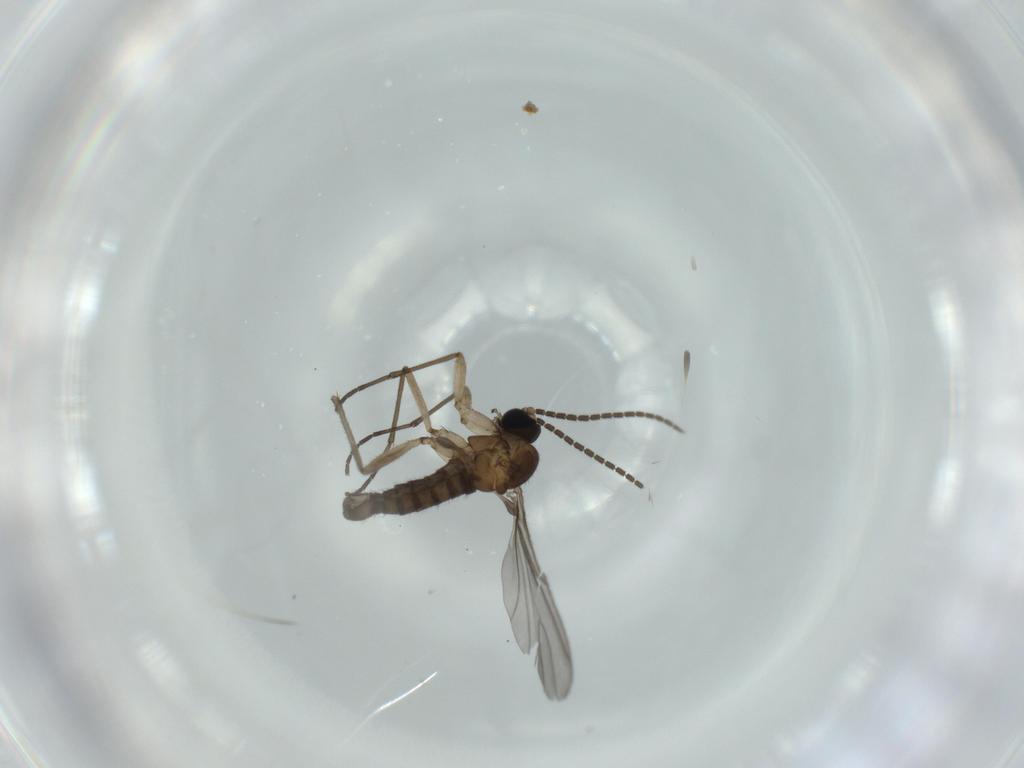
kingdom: Animalia
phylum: Arthropoda
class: Insecta
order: Diptera
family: Sciaridae
